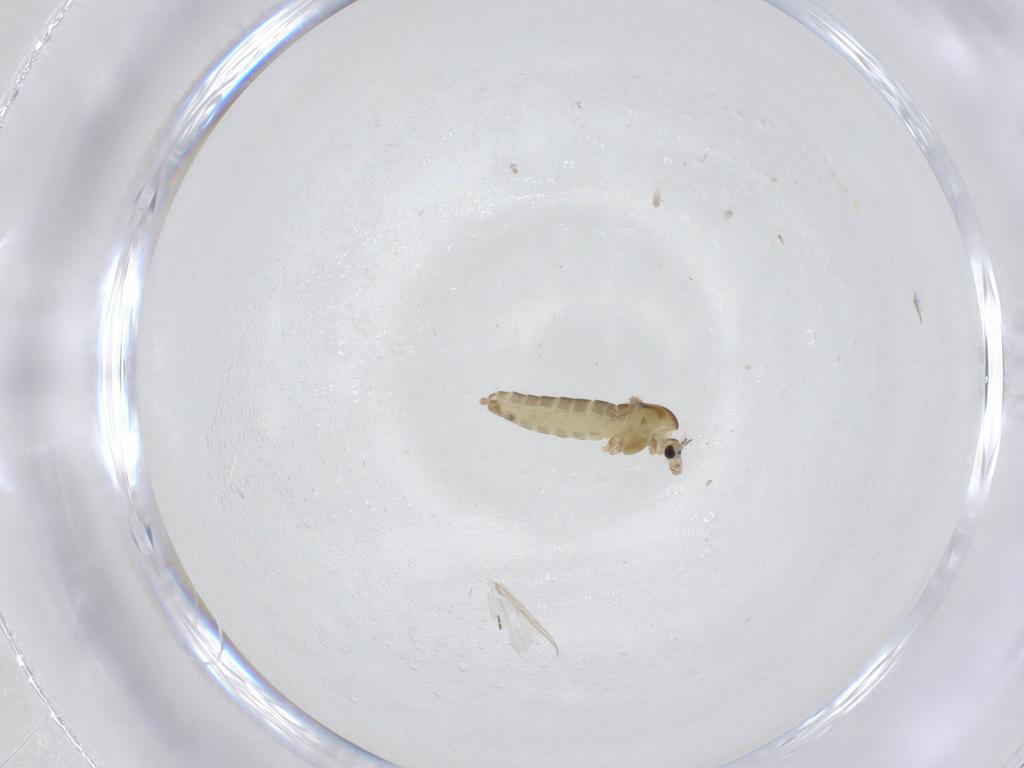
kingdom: Animalia
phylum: Arthropoda
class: Insecta
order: Diptera
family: Chironomidae
